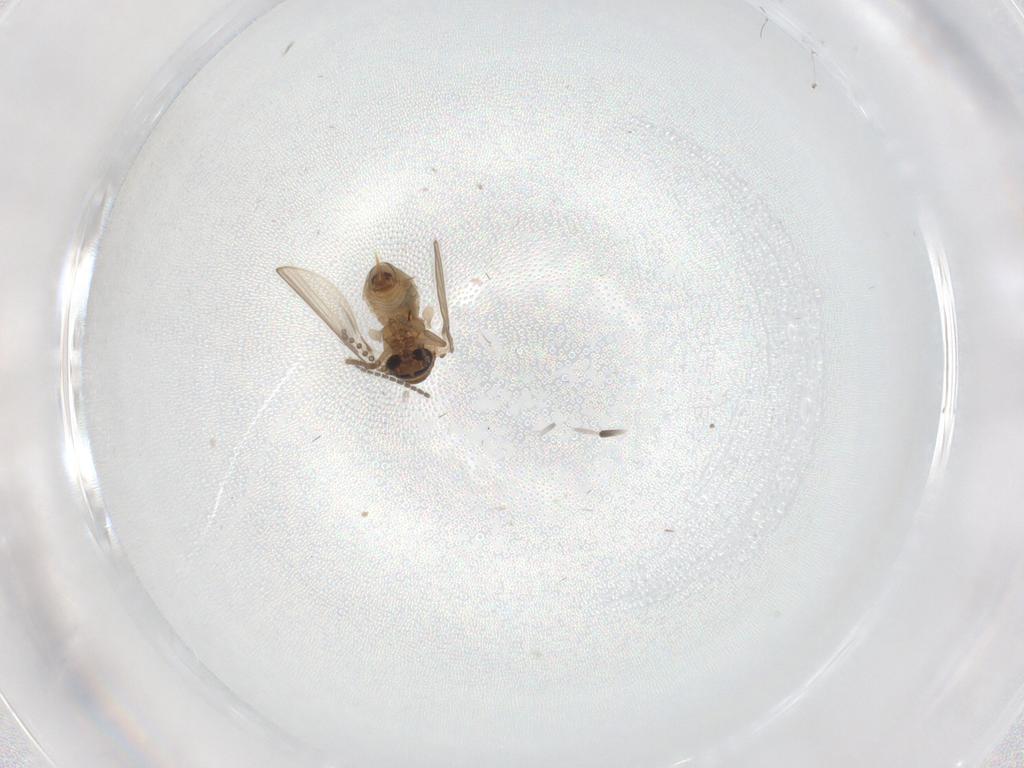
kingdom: Animalia
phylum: Arthropoda
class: Insecta
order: Diptera
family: Psychodidae
